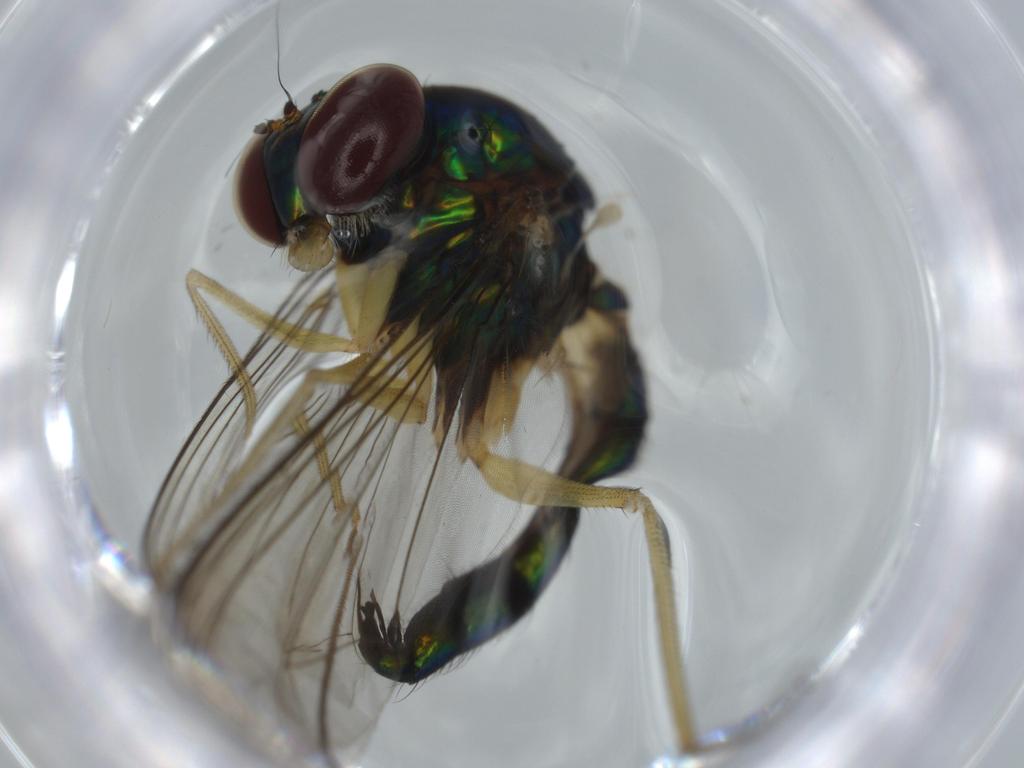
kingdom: Animalia
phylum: Arthropoda
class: Insecta
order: Diptera
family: Dolichopodidae
